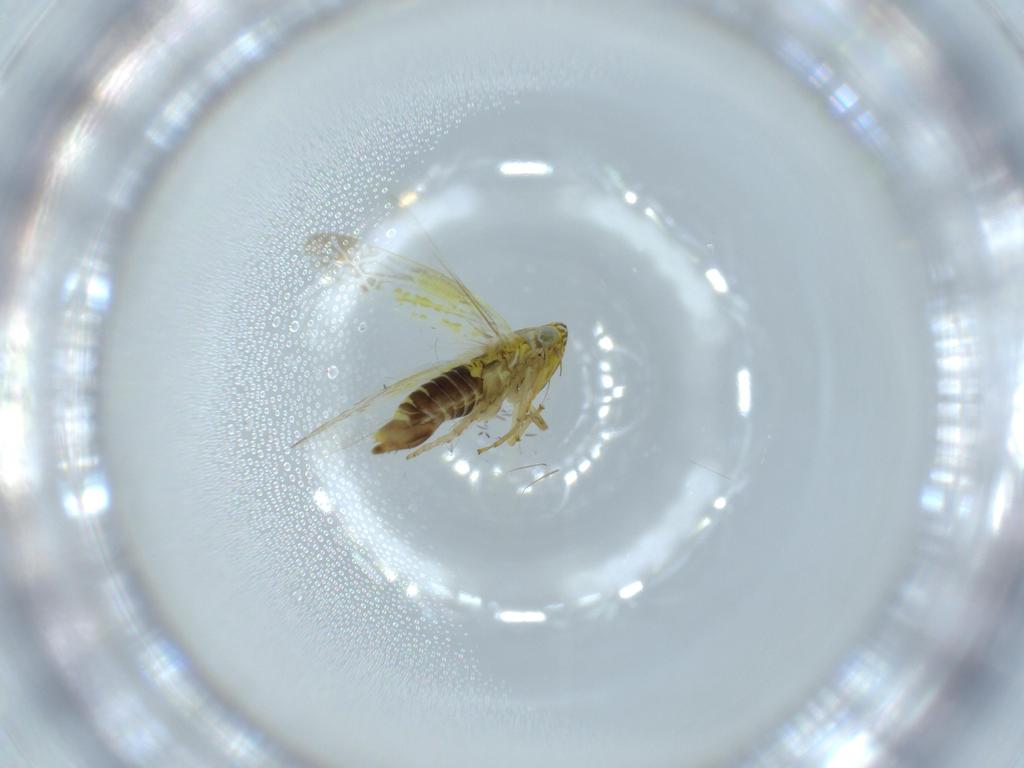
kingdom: Animalia
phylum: Arthropoda
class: Insecta
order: Hemiptera
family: Cicadellidae
